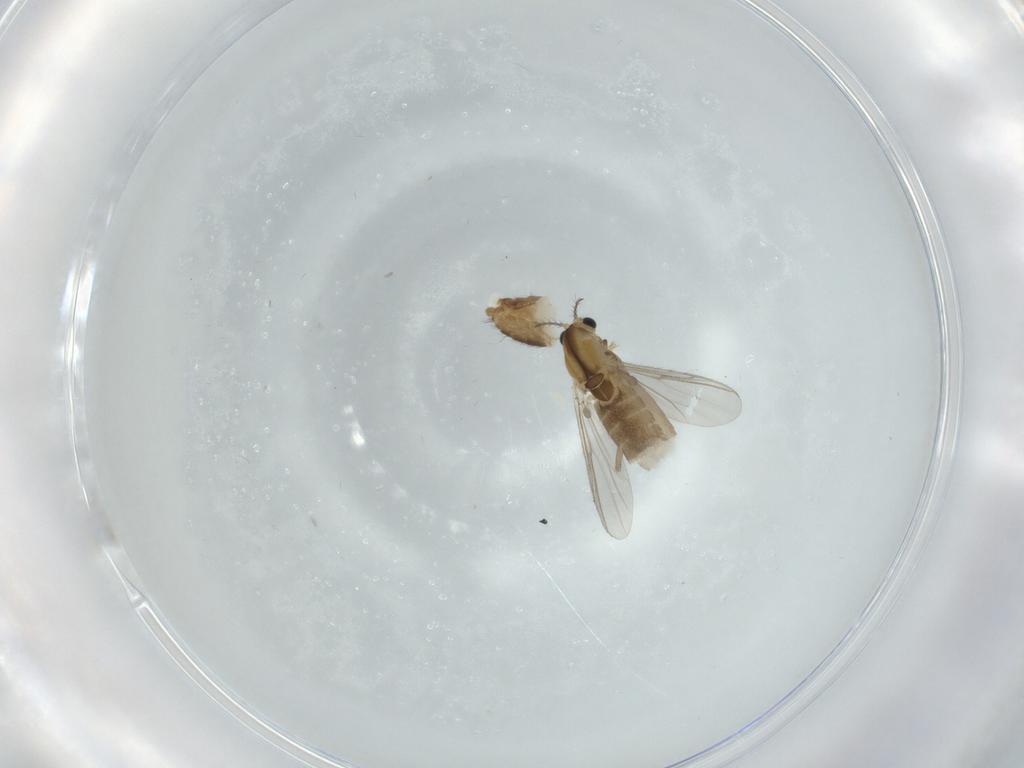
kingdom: Animalia
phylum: Arthropoda
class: Insecta
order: Diptera
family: Chironomidae
